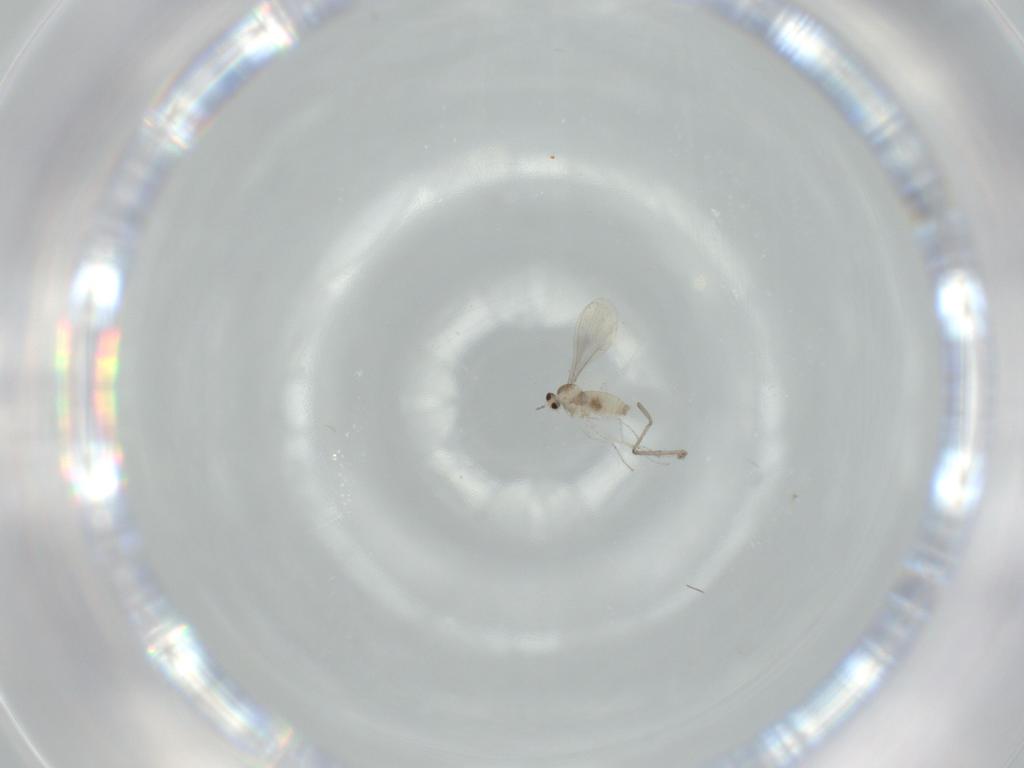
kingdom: Animalia
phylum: Arthropoda
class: Insecta
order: Diptera
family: Cecidomyiidae
